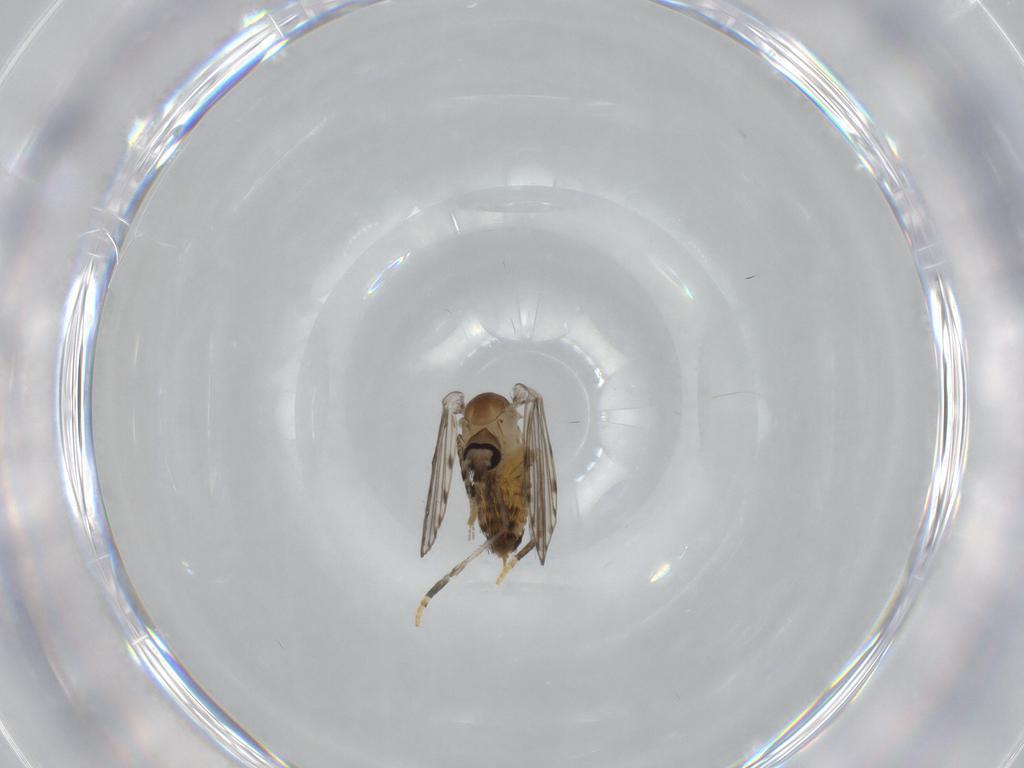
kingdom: Animalia
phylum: Arthropoda
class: Insecta
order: Diptera
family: Psychodidae
